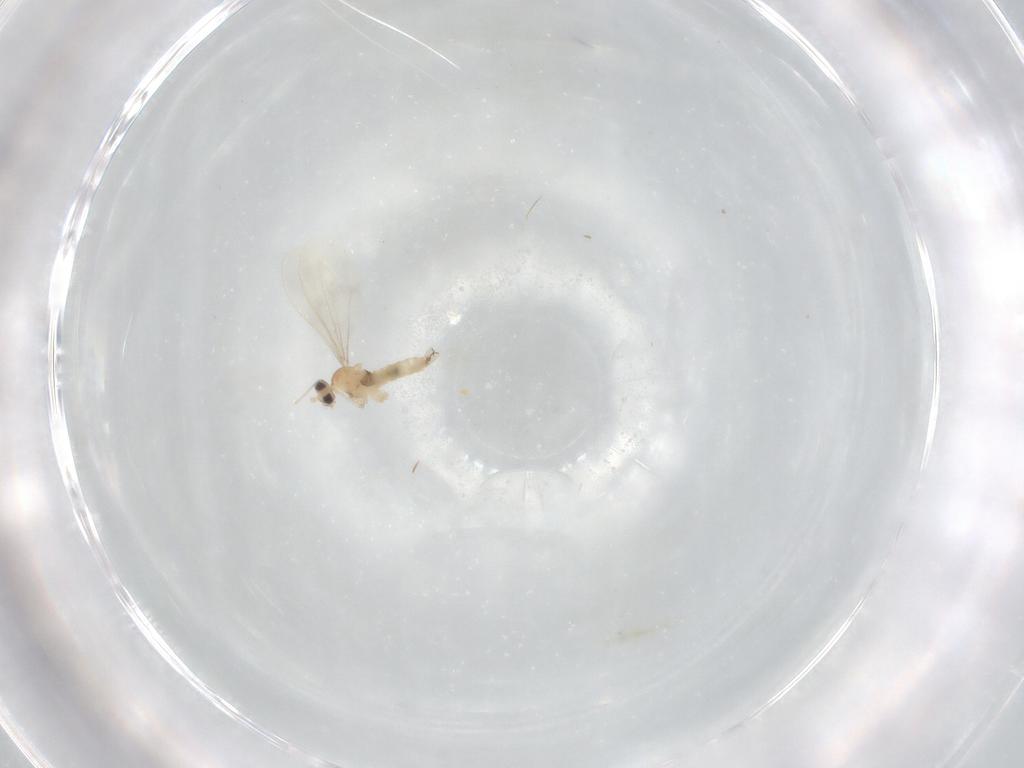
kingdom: Animalia
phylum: Arthropoda
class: Insecta
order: Diptera
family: Cecidomyiidae
